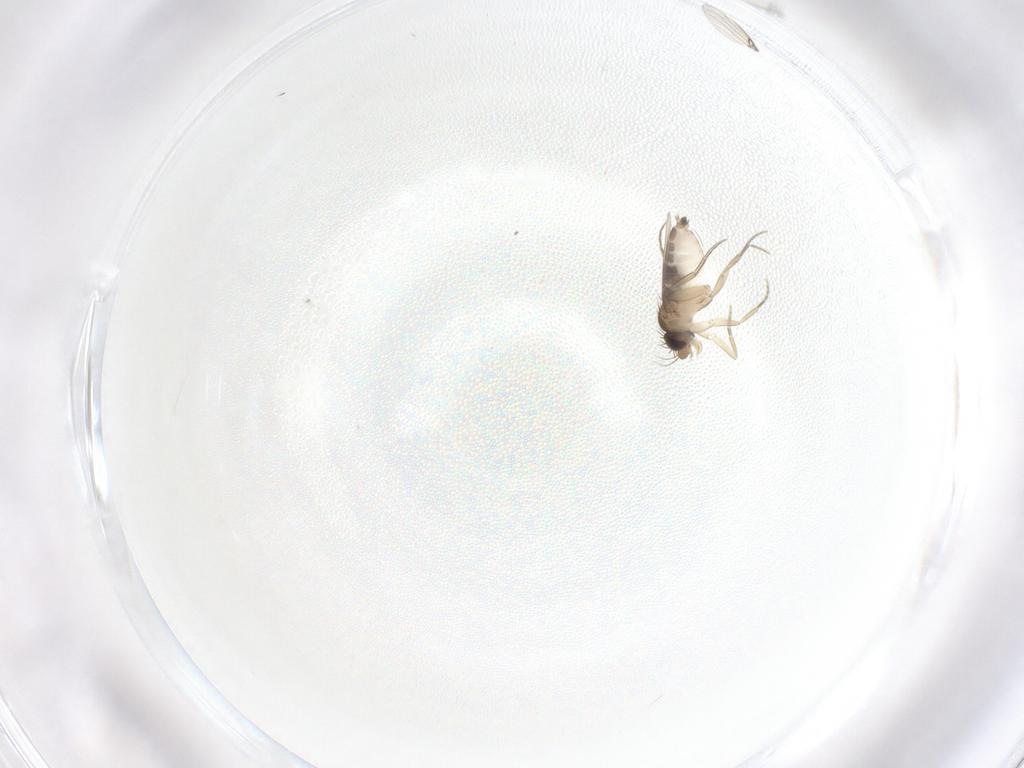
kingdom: Animalia
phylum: Arthropoda
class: Insecta
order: Diptera
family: Phoridae
